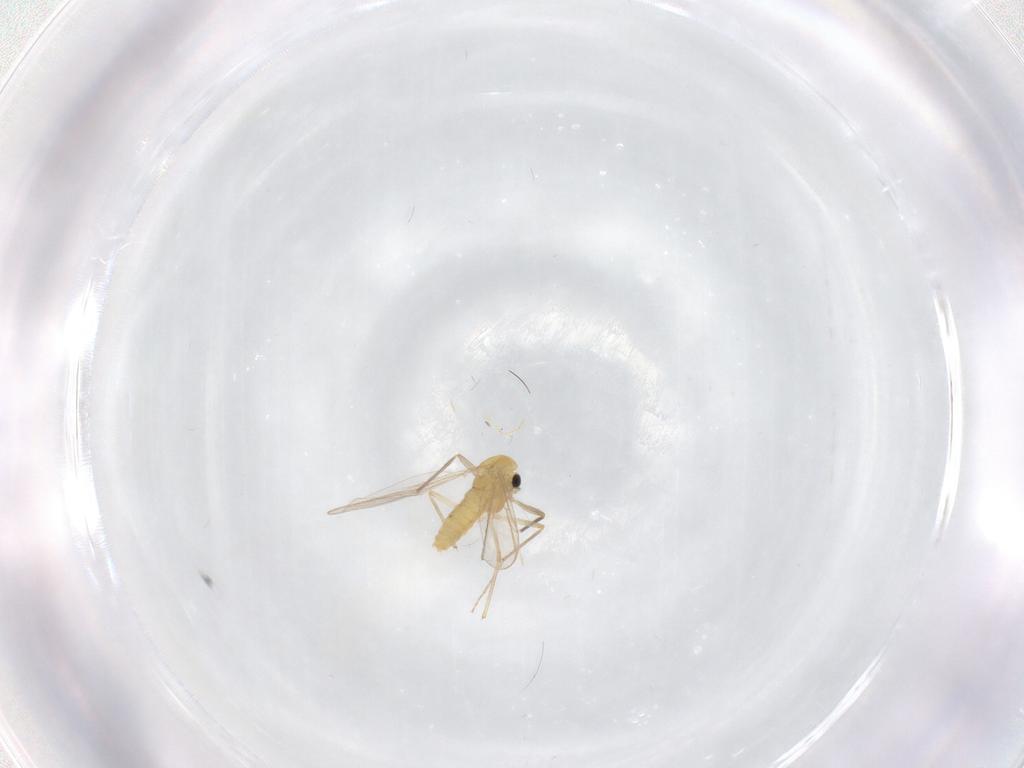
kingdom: Animalia
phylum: Arthropoda
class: Insecta
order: Diptera
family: Chironomidae
